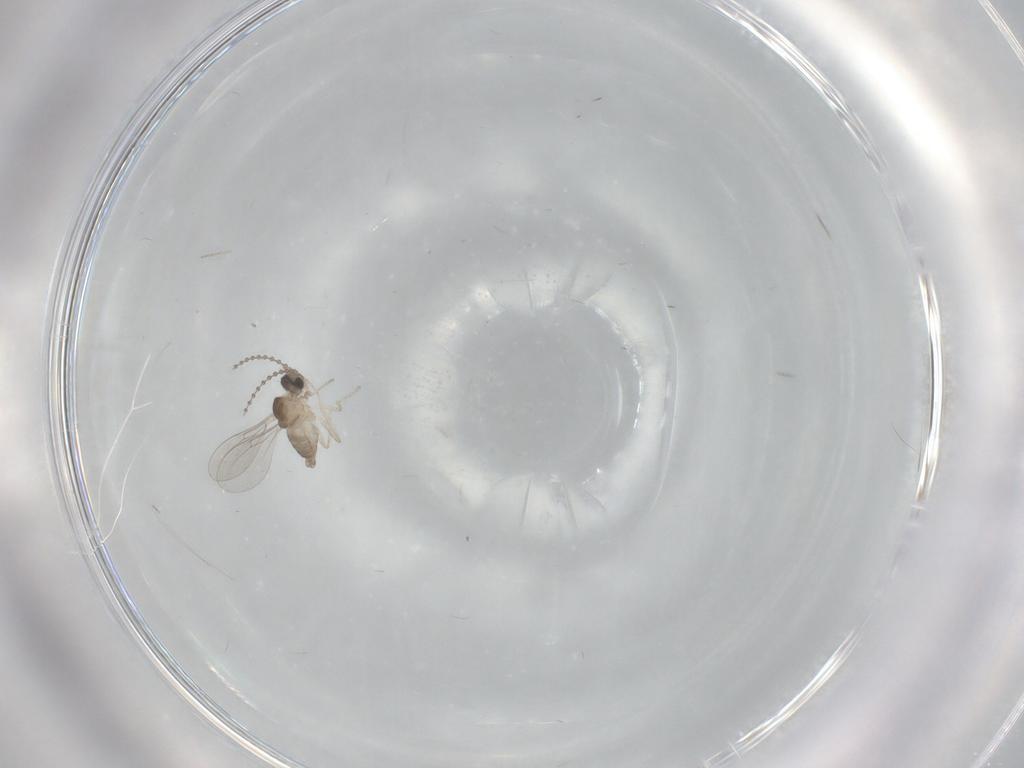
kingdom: Animalia
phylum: Arthropoda
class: Insecta
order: Diptera
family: Cecidomyiidae
